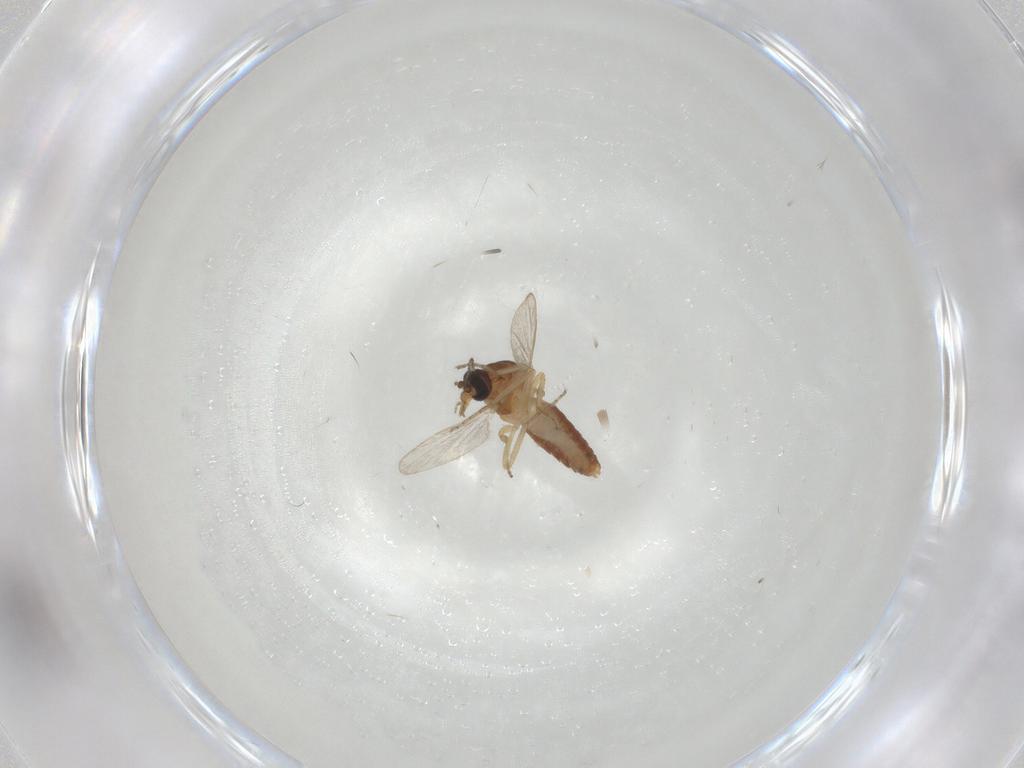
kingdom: Animalia
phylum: Arthropoda
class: Insecta
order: Diptera
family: Ceratopogonidae
